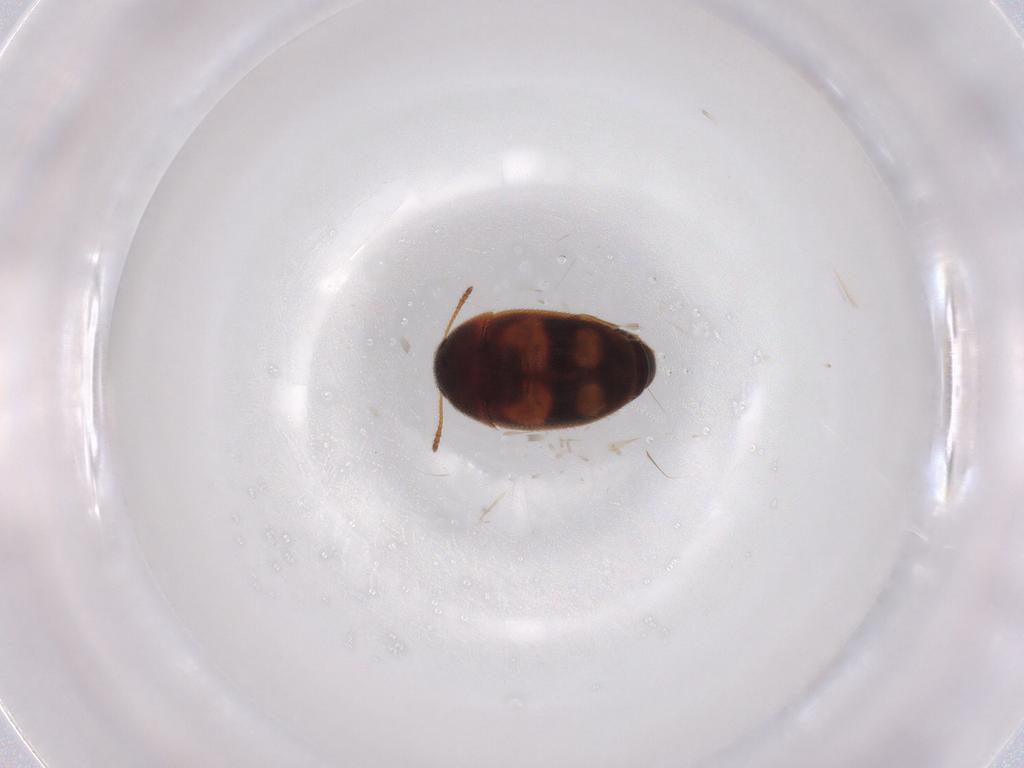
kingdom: Animalia
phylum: Arthropoda
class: Insecta
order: Coleoptera
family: Mycetophagidae
